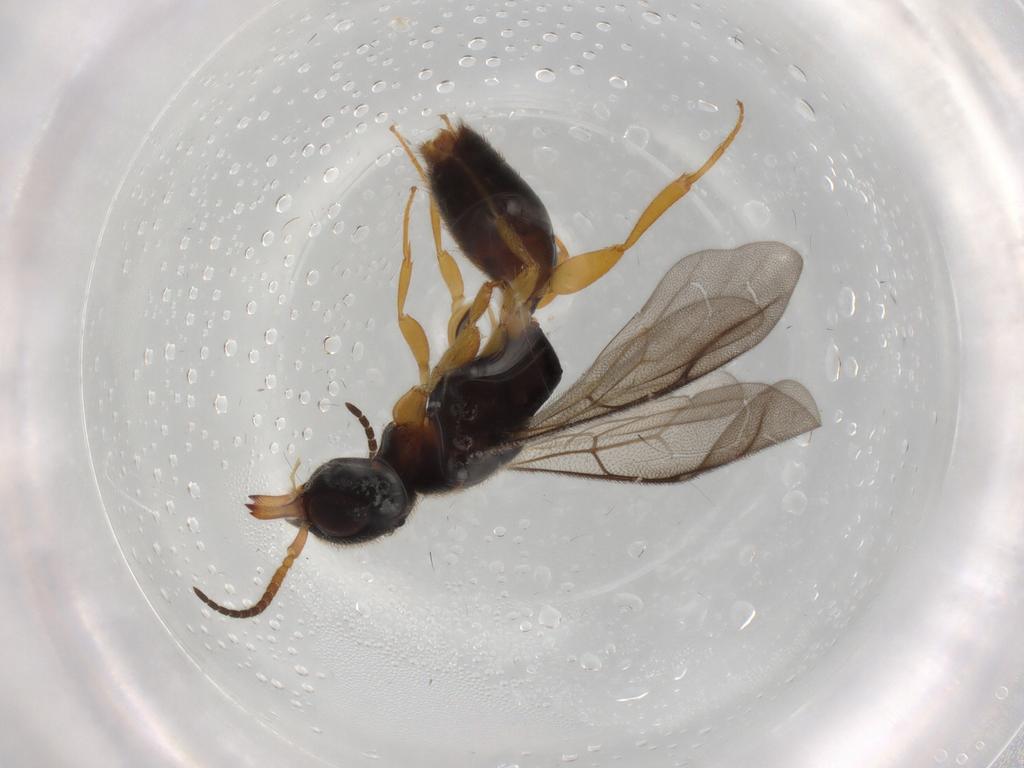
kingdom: Animalia
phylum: Arthropoda
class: Insecta
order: Hymenoptera
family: Bethylidae
